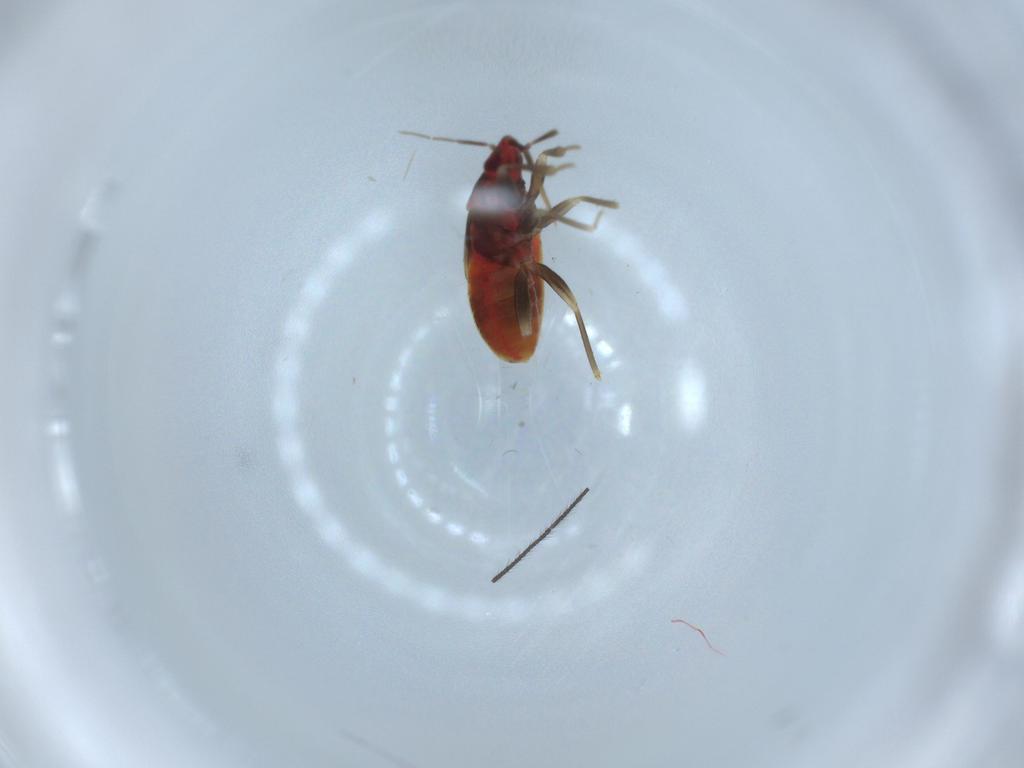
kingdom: Animalia
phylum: Arthropoda
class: Insecta
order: Hemiptera
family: Anthocoridae
